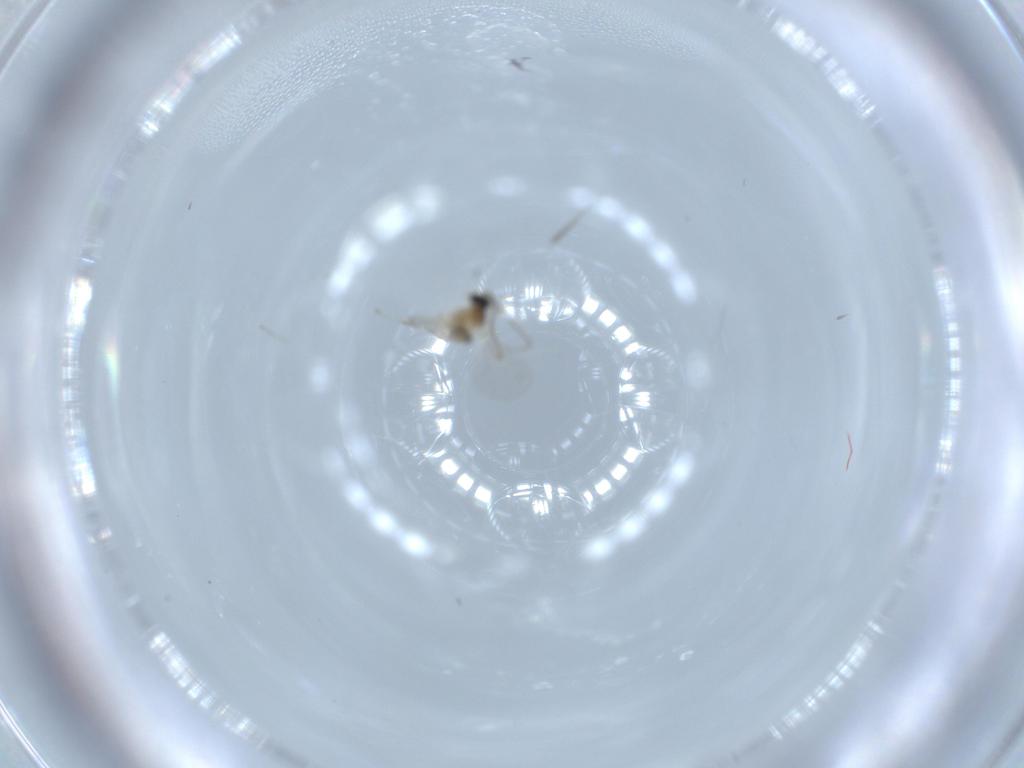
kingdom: Animalia
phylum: Arthropoda
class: Insecta
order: Diptera
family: Cecidomyiidae
